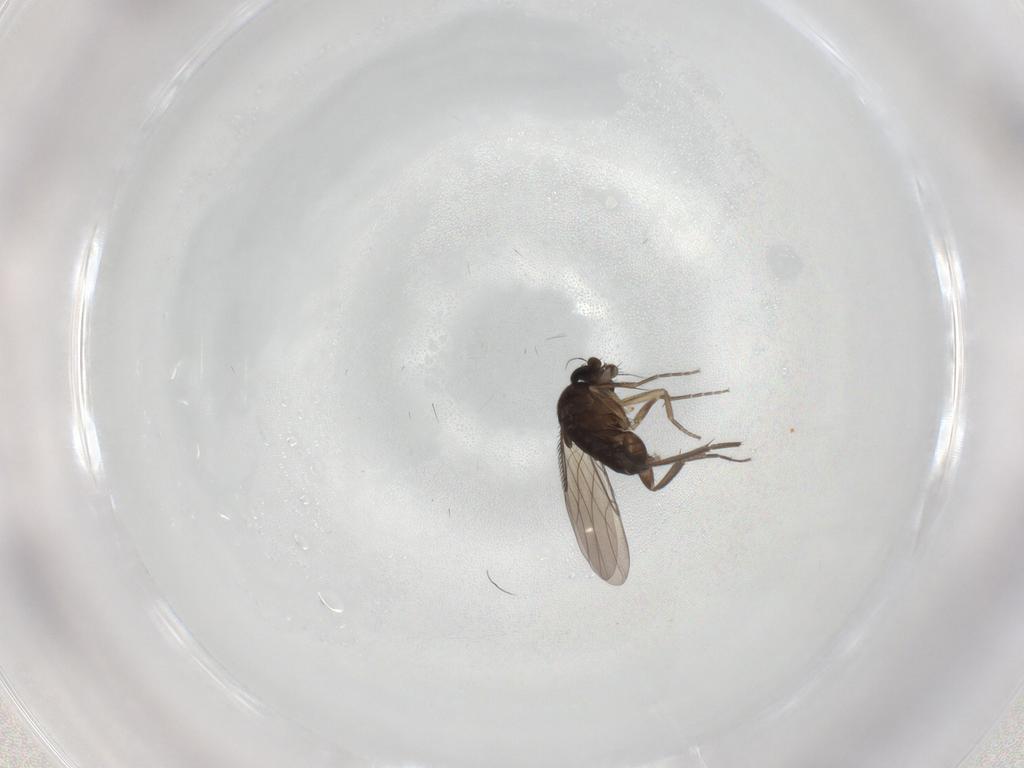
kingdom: Animalia
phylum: Arthropoda
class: Insecta
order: Diptera
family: Phoridae
